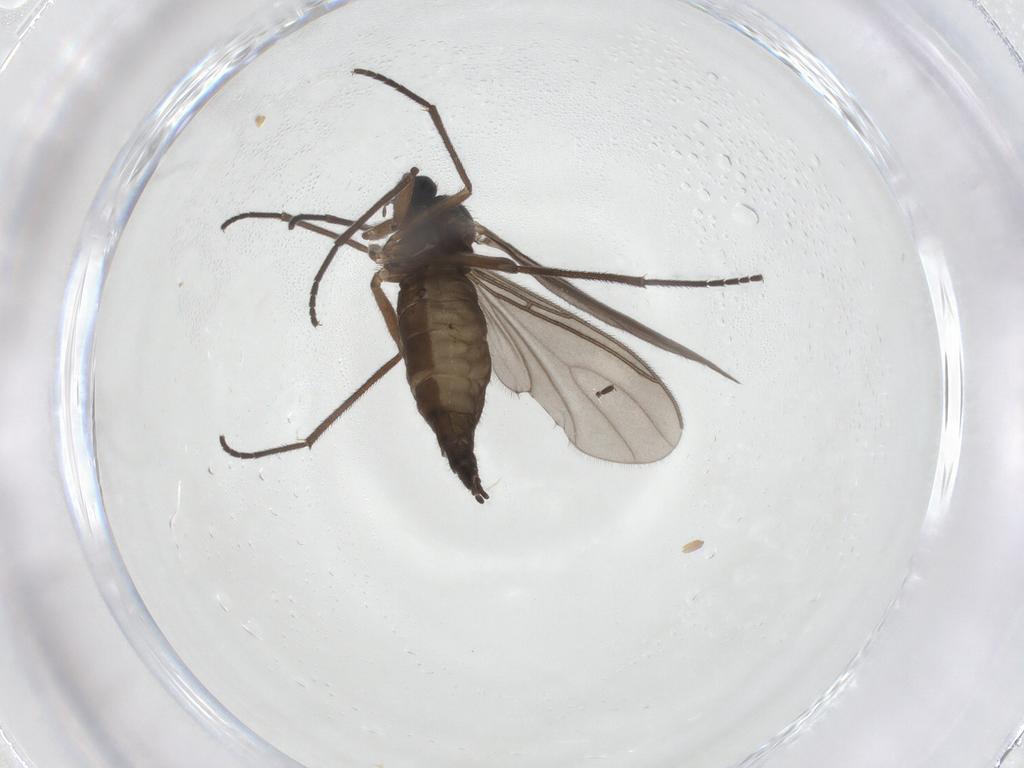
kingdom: Animalia
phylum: Arthropoda
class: Insecta
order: Diptera
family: Sciaridae
